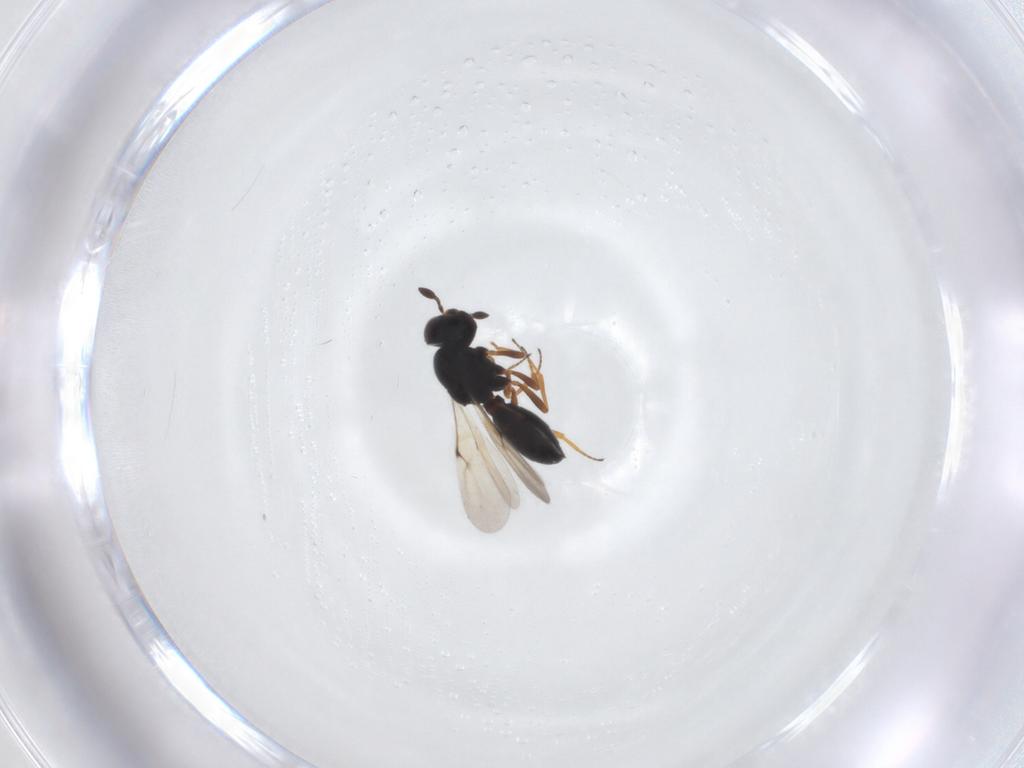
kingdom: Animalia
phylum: Arthropoda
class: Insecta
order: Hymenoptera
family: Scelionidae
